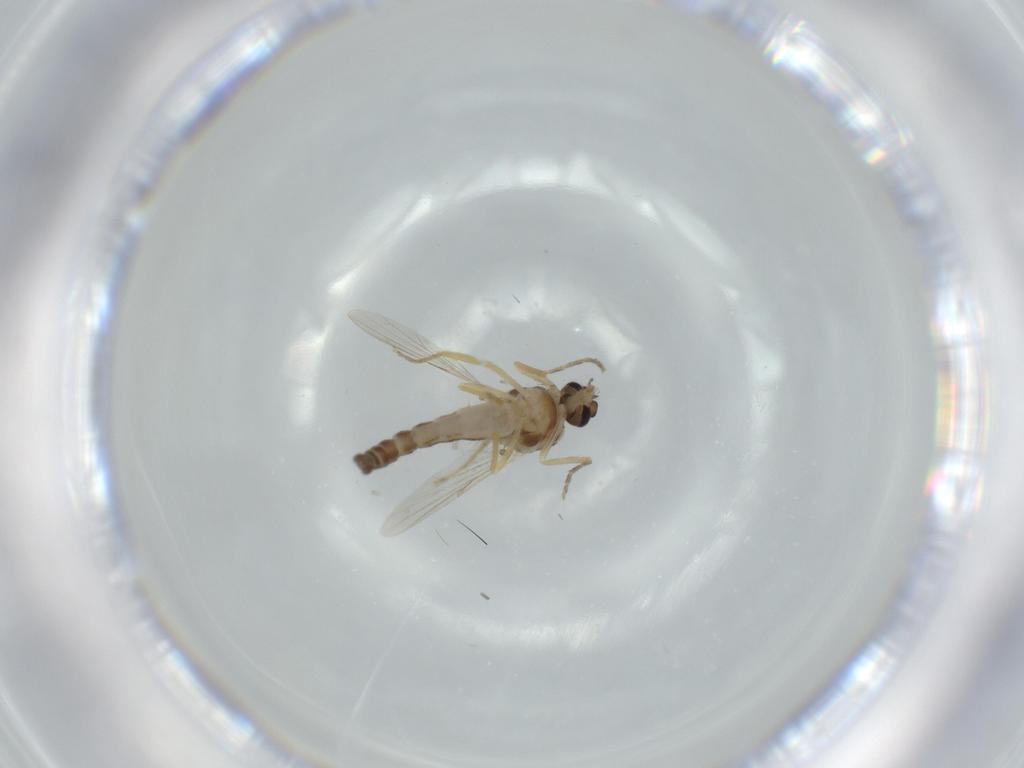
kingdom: Animalia
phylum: Arthropoda
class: Insecta
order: Diptera
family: Ceratopogonidae
